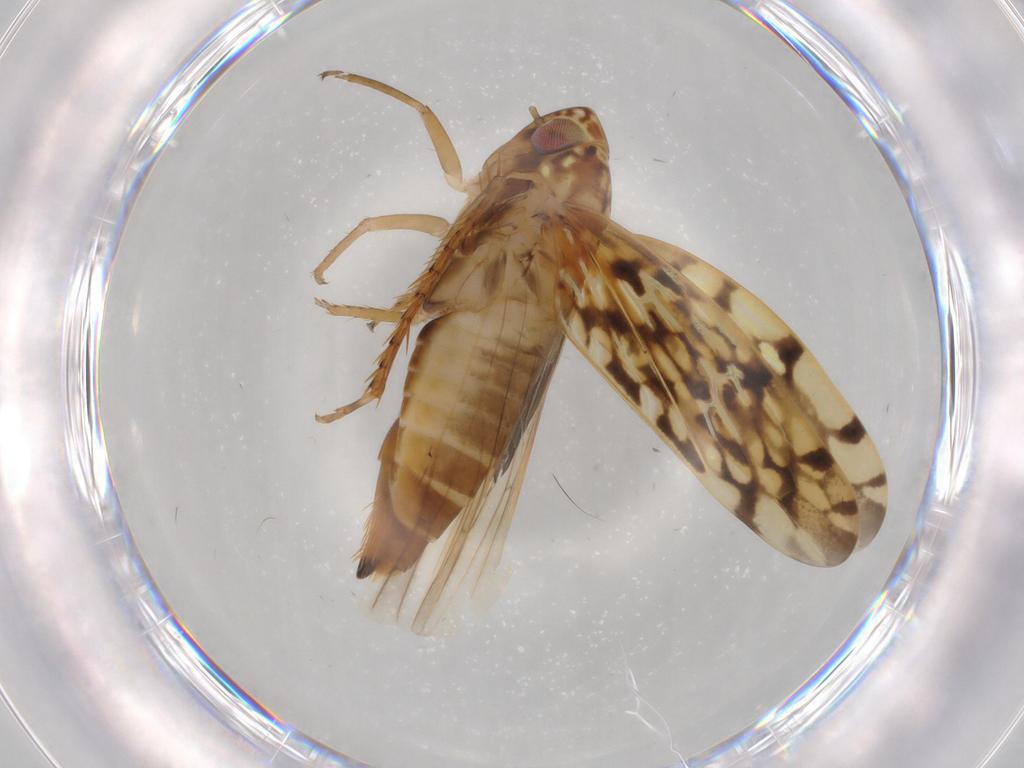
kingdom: Animalia
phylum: Arthropoda
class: Insecta
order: Hemiptera
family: Cicadellidae
